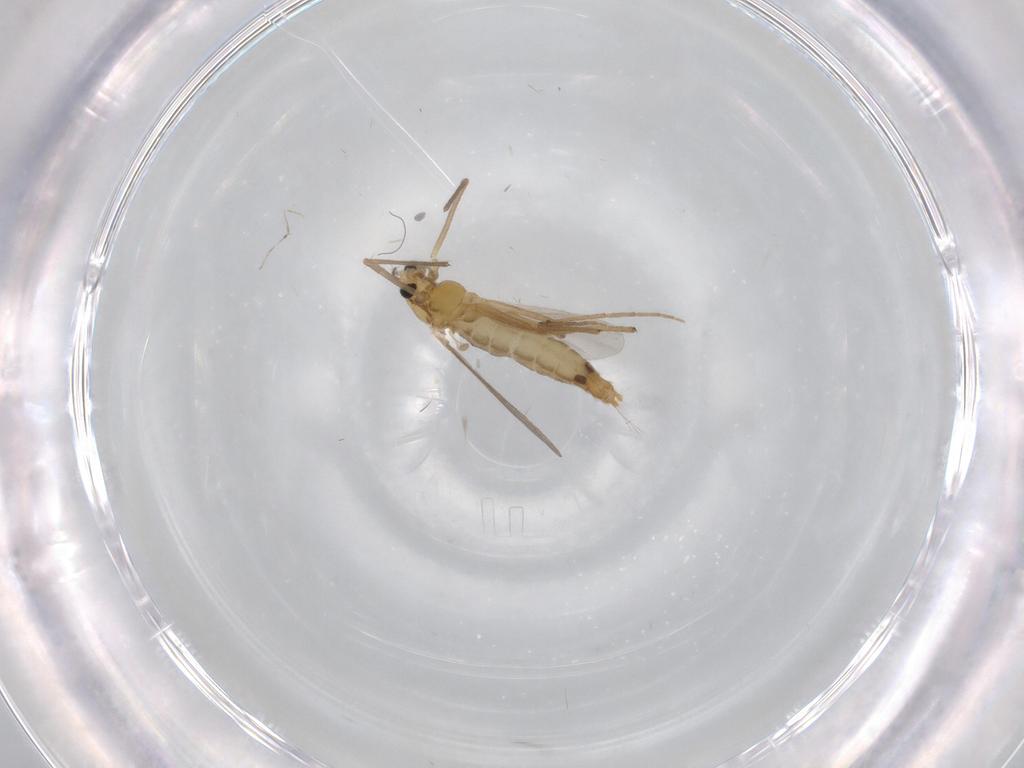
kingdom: Animalia
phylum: Arthropoda
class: Insecta
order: Diptera
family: Chironomidae
